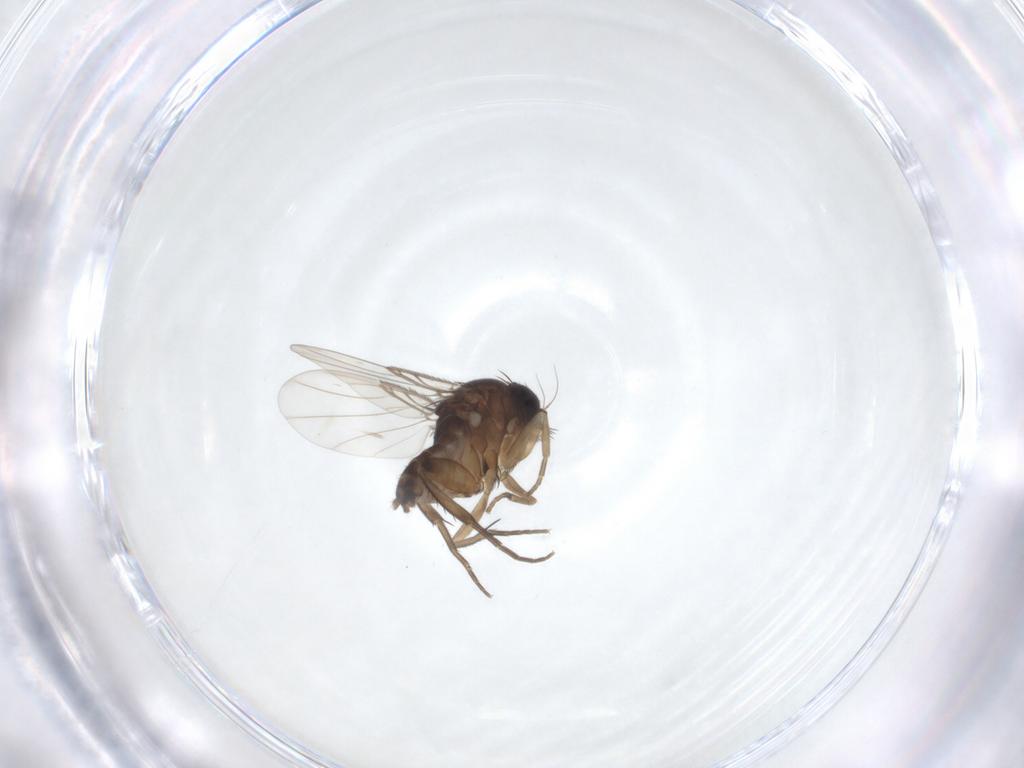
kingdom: Animalia
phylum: Arthropoda
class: Insecta
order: Diptera
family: Phoridae
